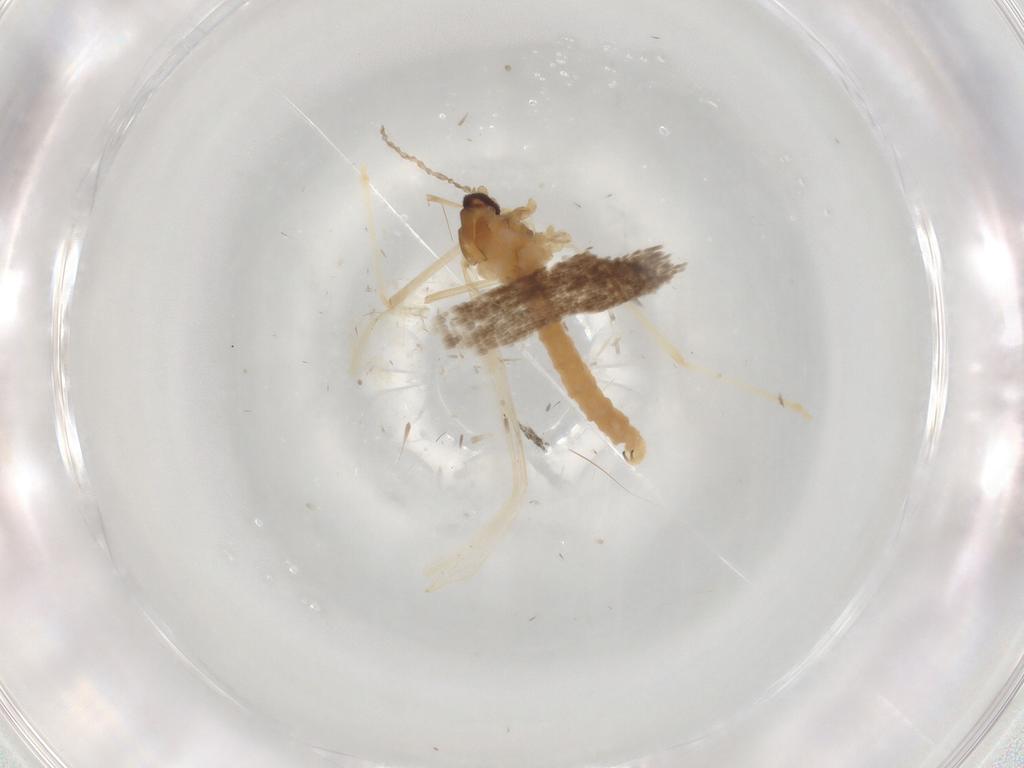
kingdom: Animalia
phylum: Arthropoda
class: Insecta
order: Diptera
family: Cecidomyiidae
